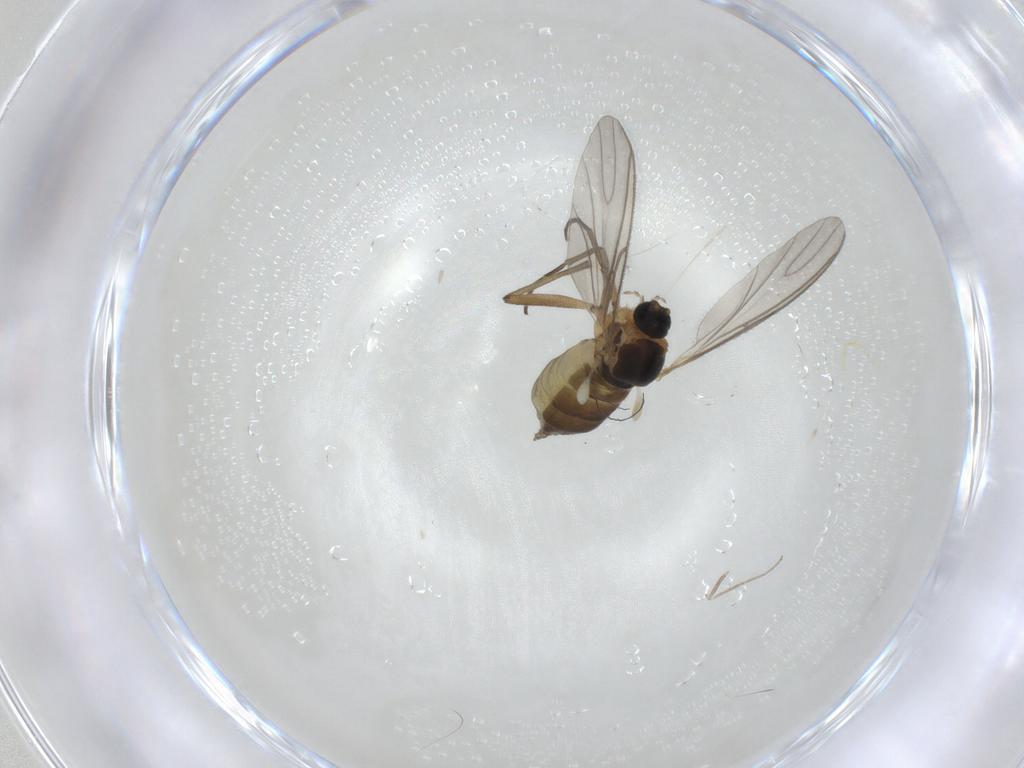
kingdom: Animalia
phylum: Arthropoda
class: Insecta
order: Diptera
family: Cecidomyiidae
